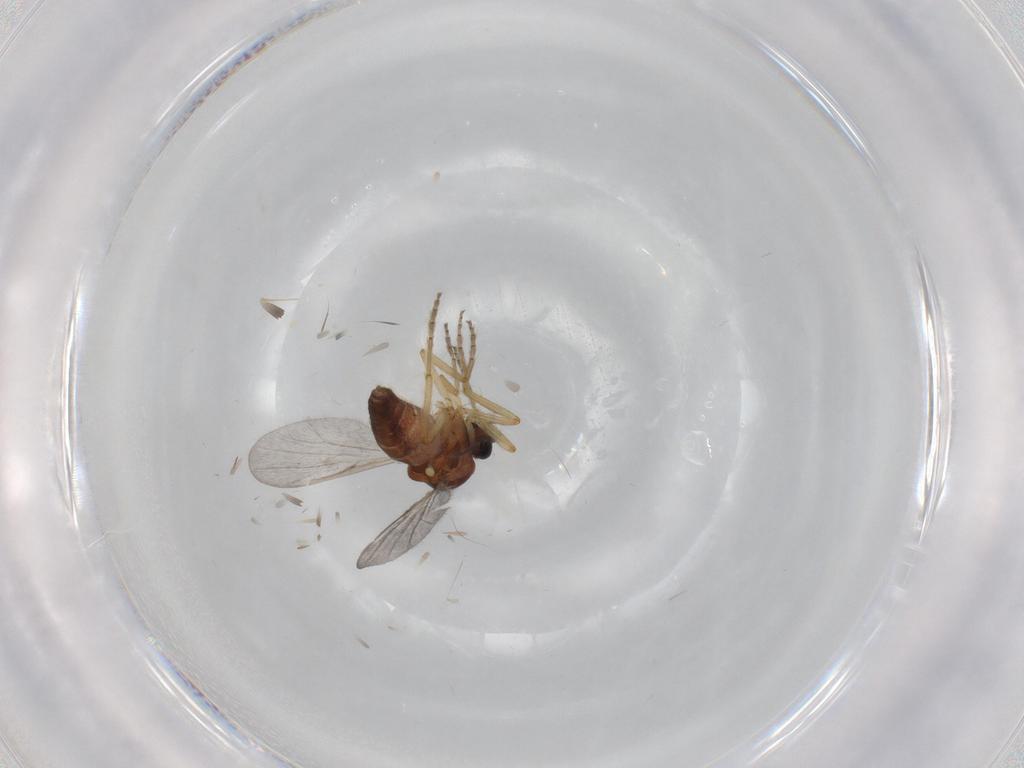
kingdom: Animalia
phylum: Arthropoda
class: Insecta
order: Diptera
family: Ceratopogonidae
